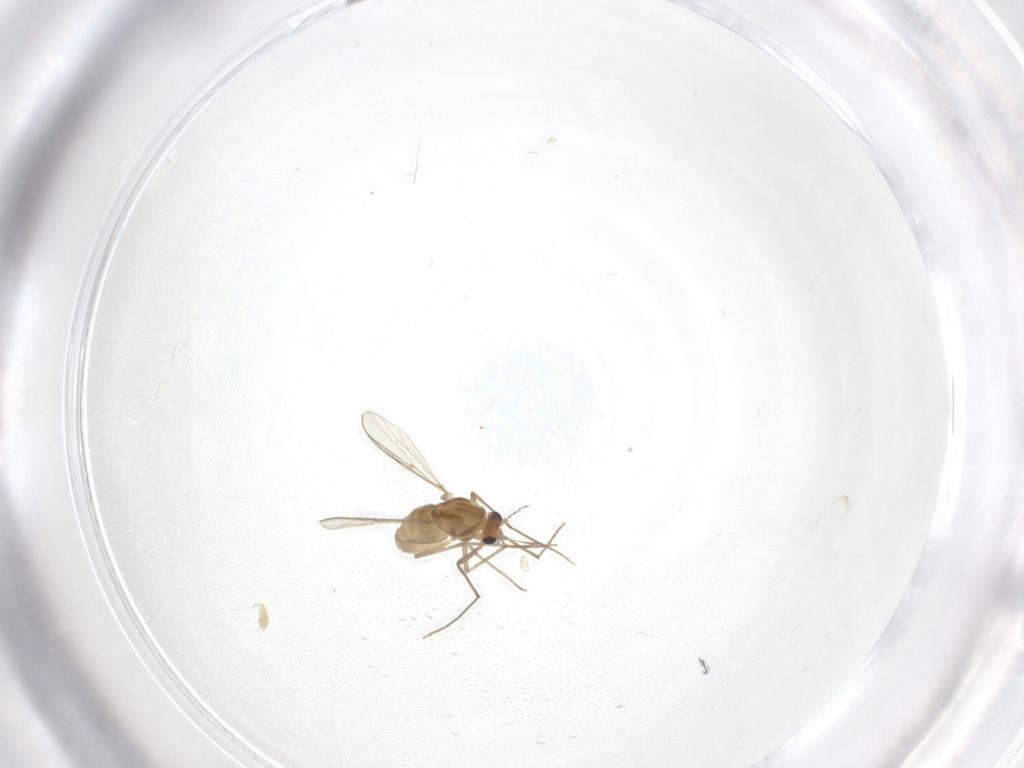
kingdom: Animalia
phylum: Arthropoda
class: Insecta
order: Diptera
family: Chironomidae
